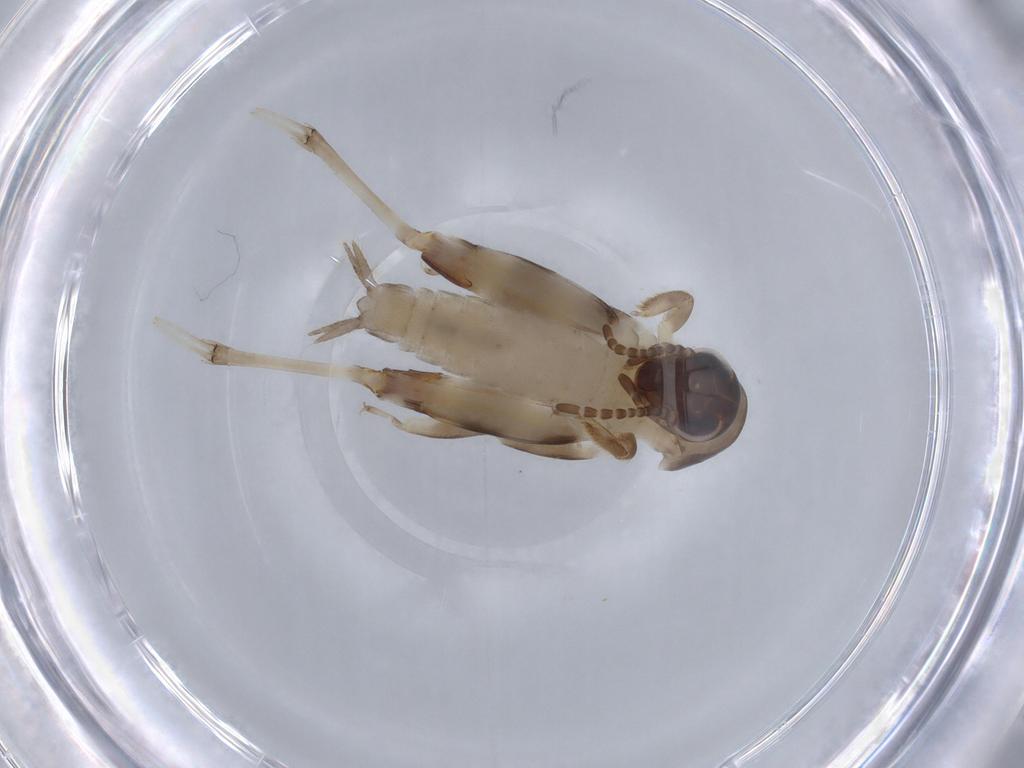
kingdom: Animalia
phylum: Arthropoda
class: Insecta
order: Orthoptera
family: Tridactylidae
